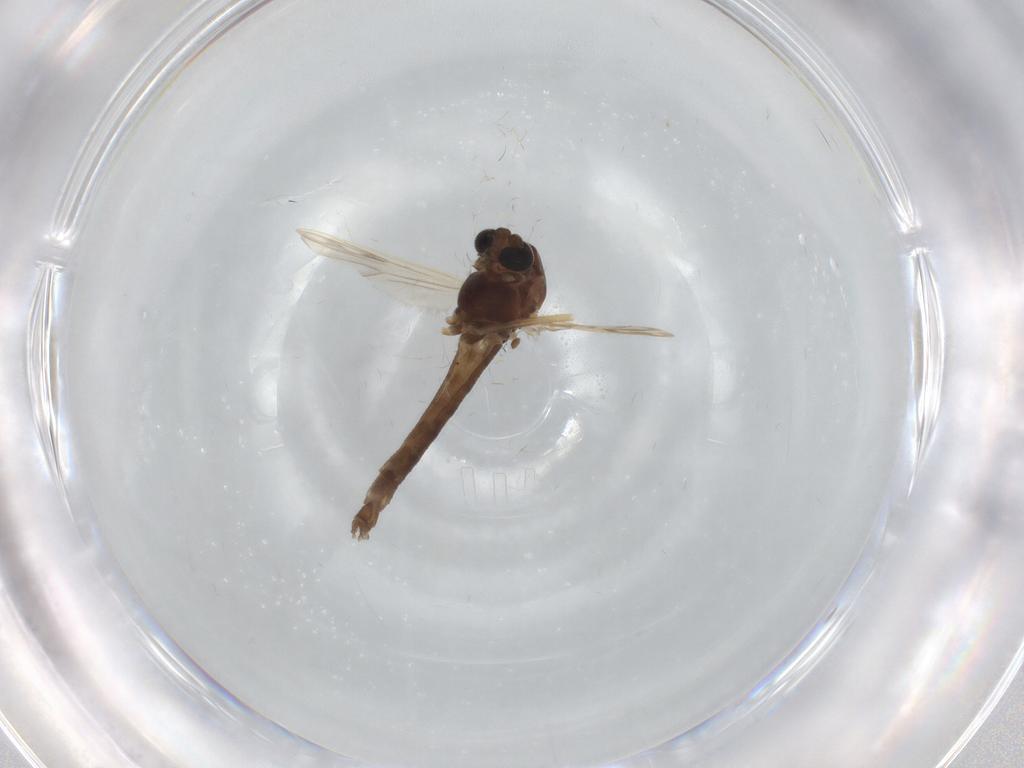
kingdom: Animalia
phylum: Arthropoda
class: Insecta
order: Diptera
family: Chironomidae
